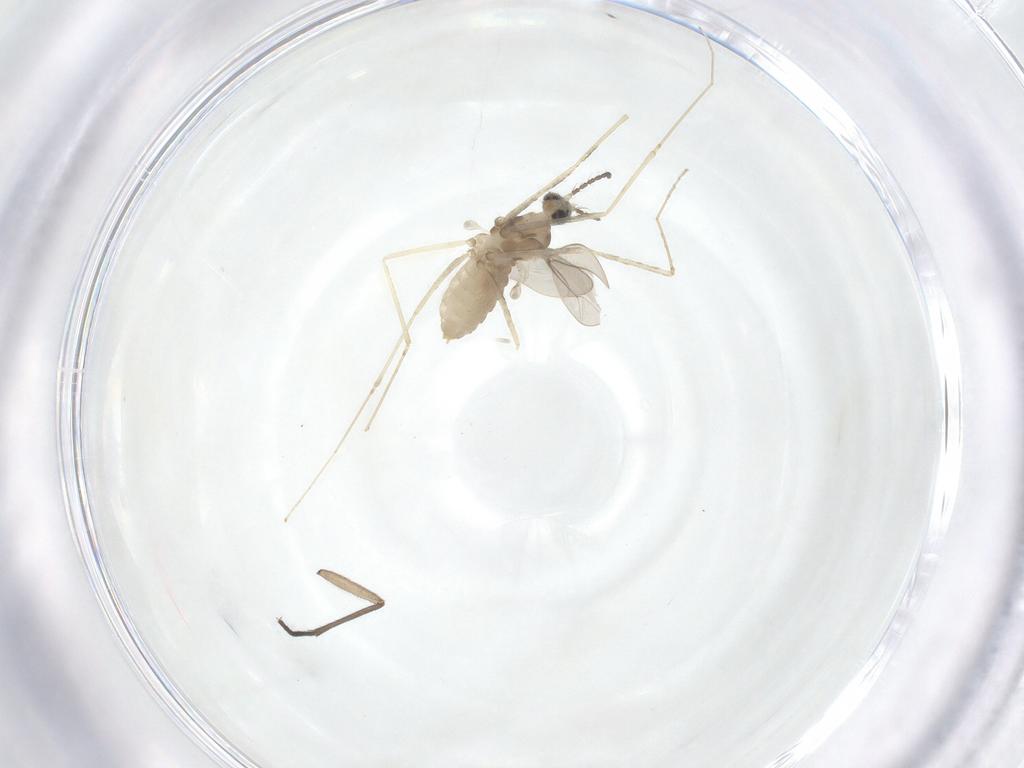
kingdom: Animalia
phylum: Arthropoda
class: Insecta
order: Diptera
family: Cecidomyiidae
